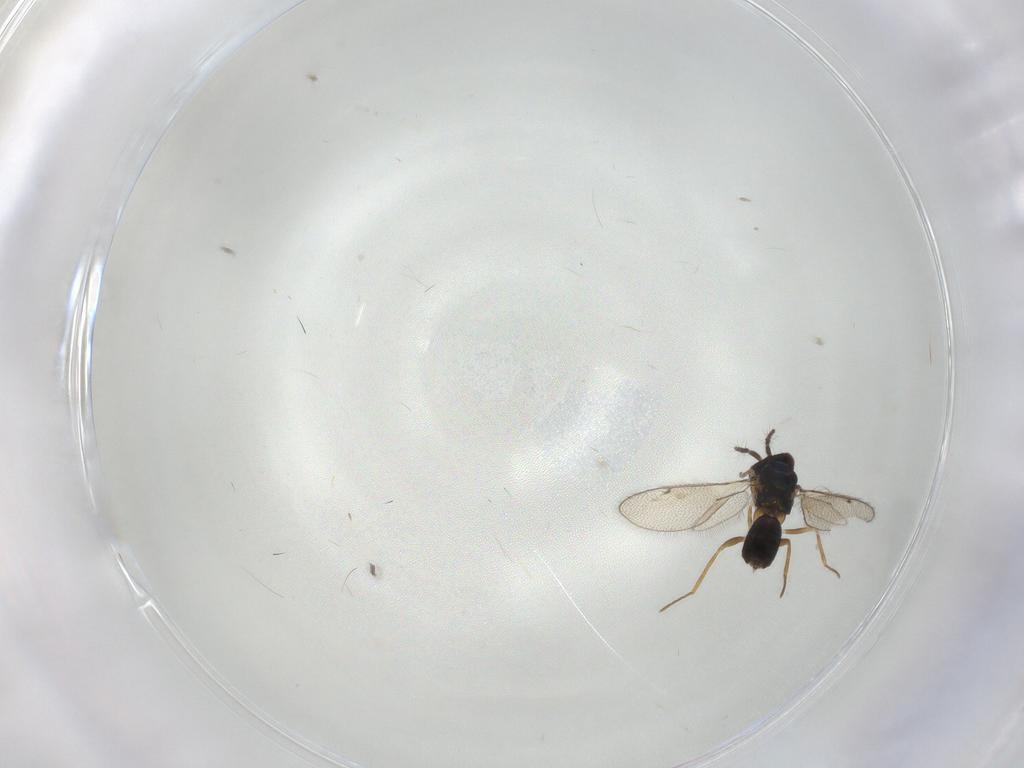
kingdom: Animalia
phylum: Arthropoda
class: Insecta
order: Hymenoptera
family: Eulophidae
